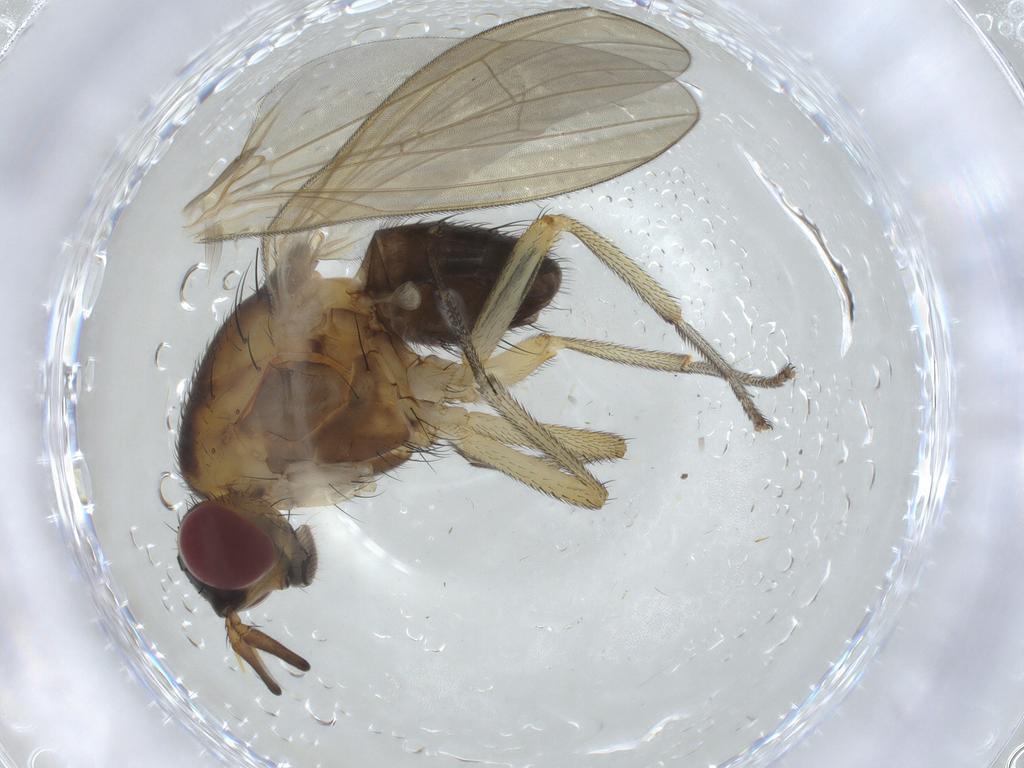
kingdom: Animalia
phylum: Arthropoda
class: Insecta
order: Diptera
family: Lauxaniidae
